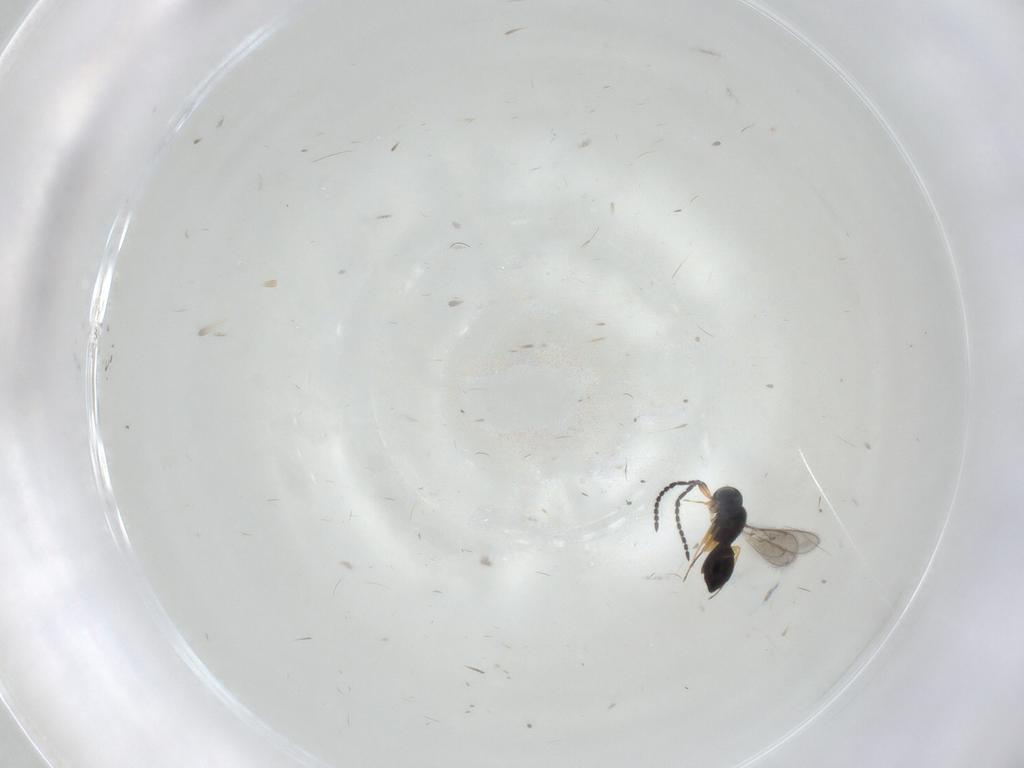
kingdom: Animalia
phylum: Arthropoda
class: Insecta
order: Hymenoptera
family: Scelionidae
